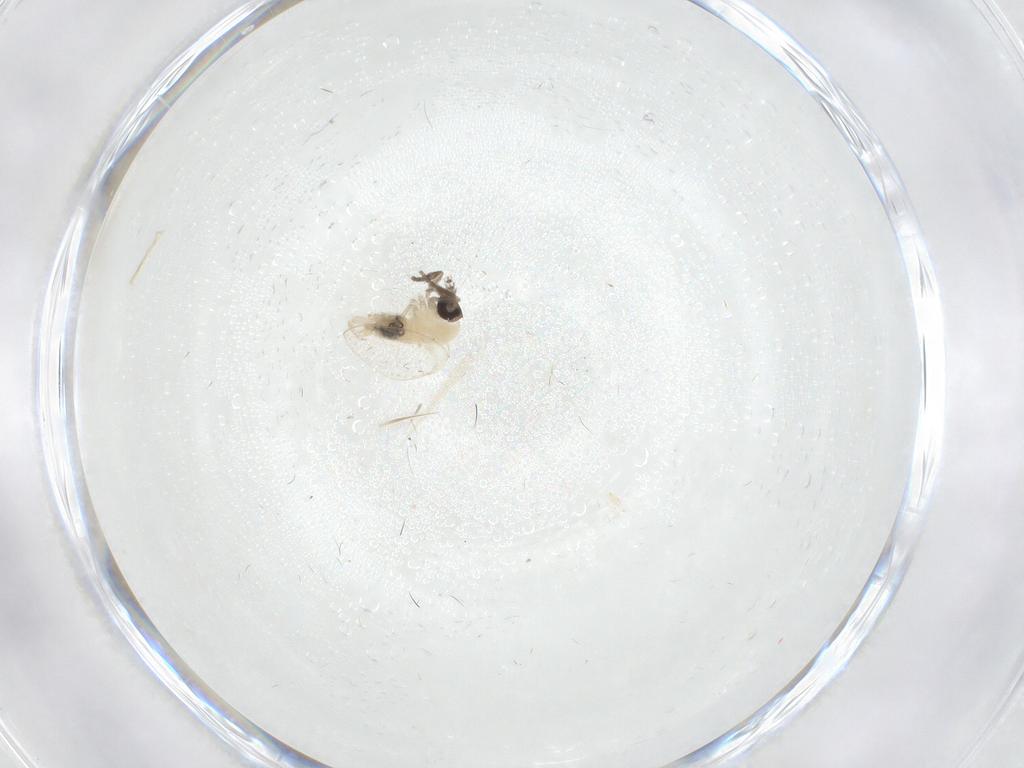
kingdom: Animalia
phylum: Arthropoda
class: Insecta
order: Diptera
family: Psychodidae
